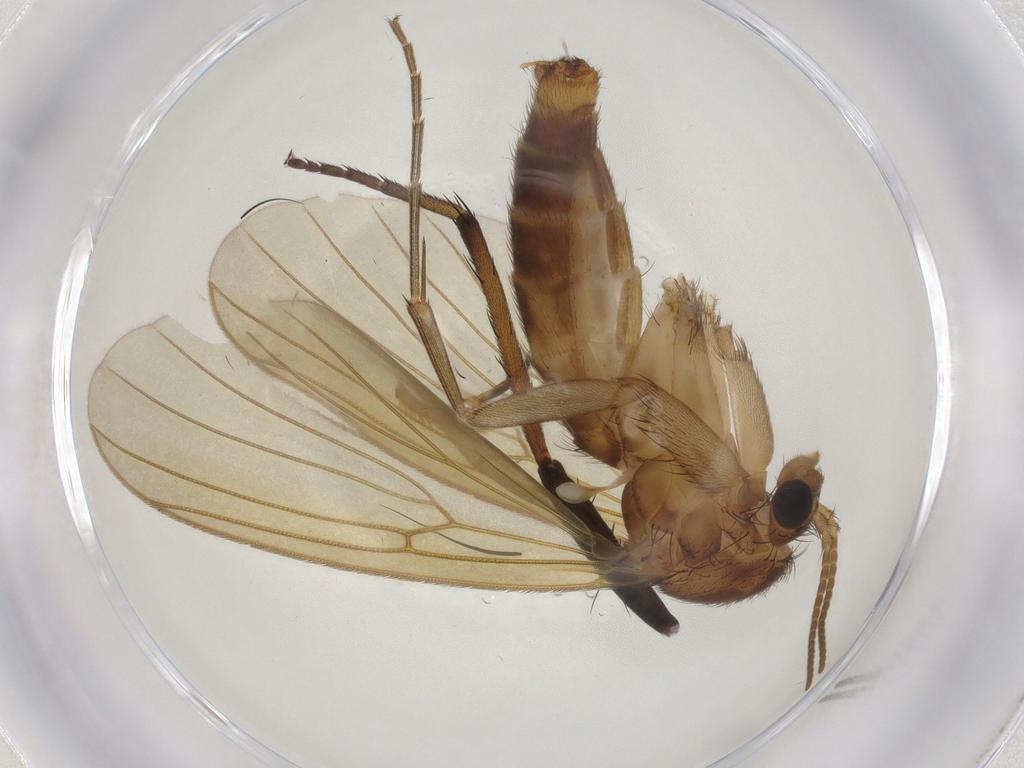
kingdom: Animalia
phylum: Arthropoda
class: Insecta
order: Diptera
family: Mycetophilidae
